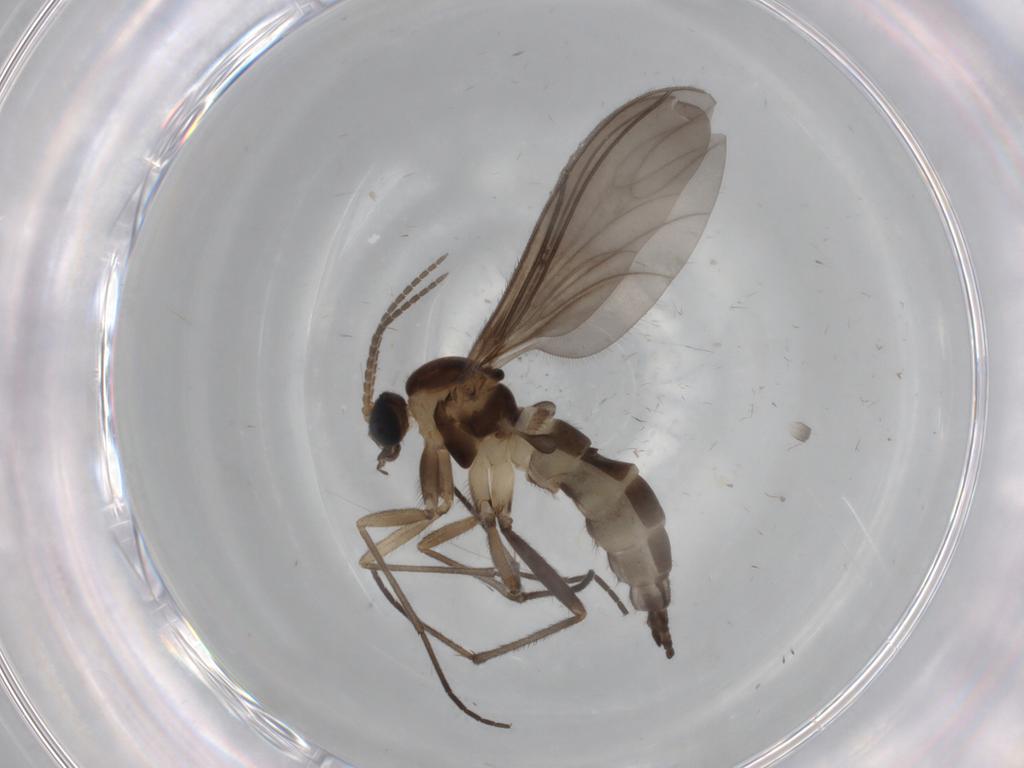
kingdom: Animalia
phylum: Arthropoda
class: Insecta
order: Diptera
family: Sciaridae
